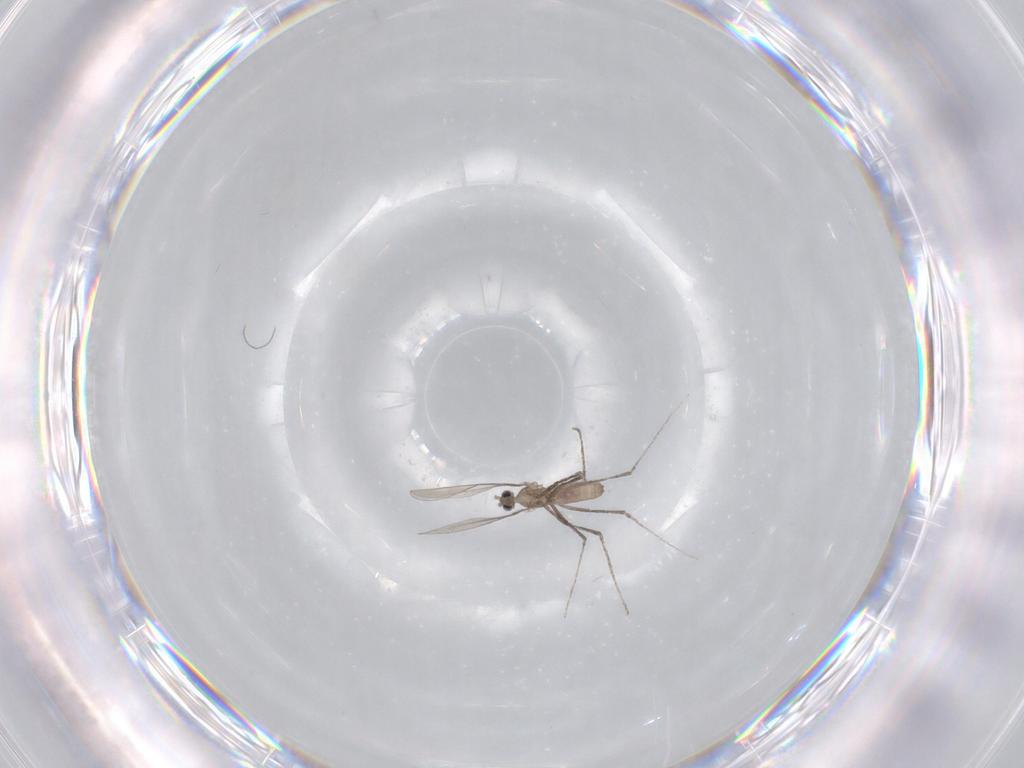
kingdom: Animalia
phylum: Arthropoda
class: Insecta
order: Diptera
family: Cecidomyiidae
